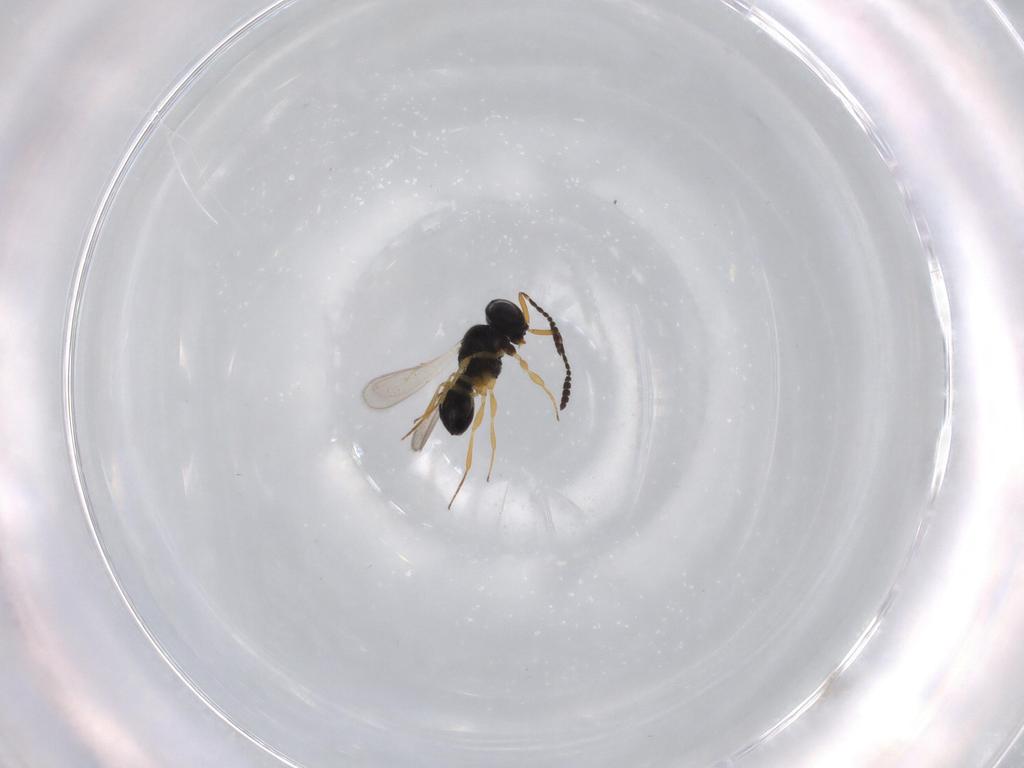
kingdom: Animalia
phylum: Arthropoda
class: Insecta
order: Hymenoptera
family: Scelionidae
